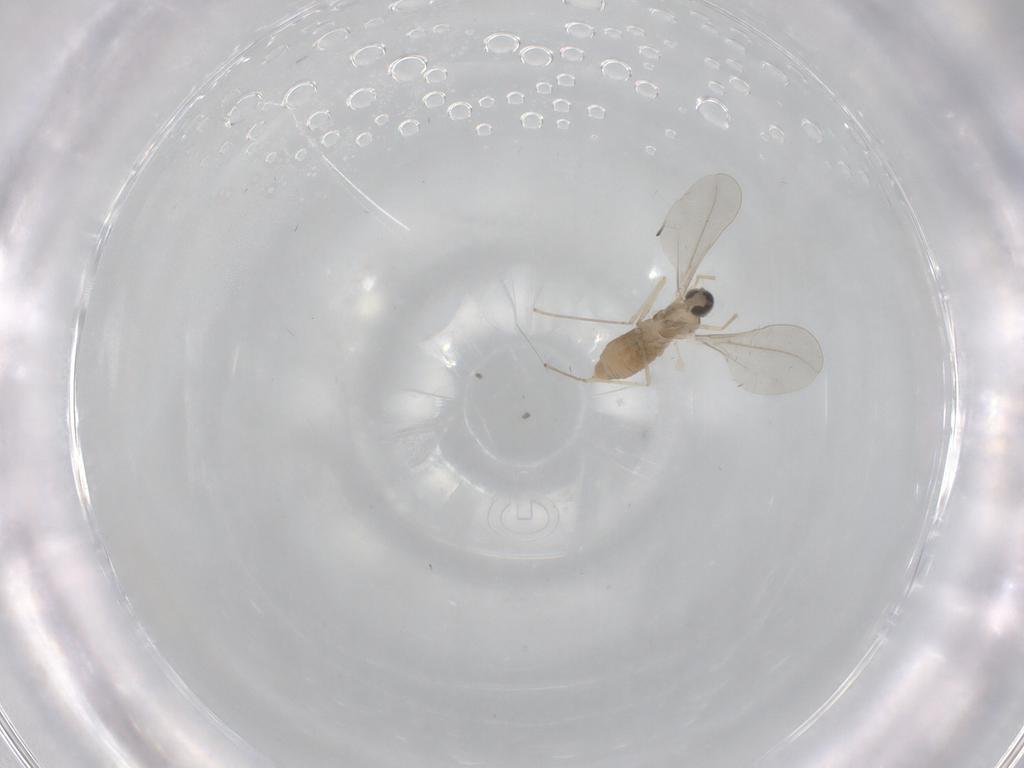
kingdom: Animalia
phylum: Arthropoda
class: Insecta
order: Diptera
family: Cecidomyiidae
